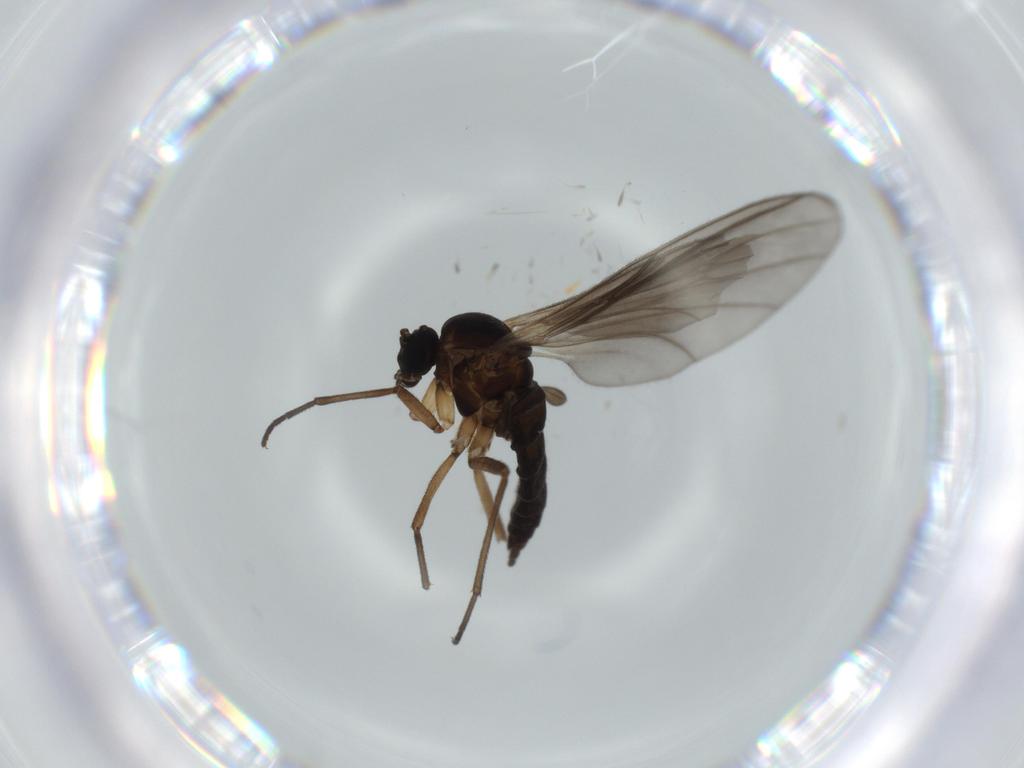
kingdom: Animalia
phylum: Arthropoda
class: Insecta
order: Diptera
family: Sciaridae
